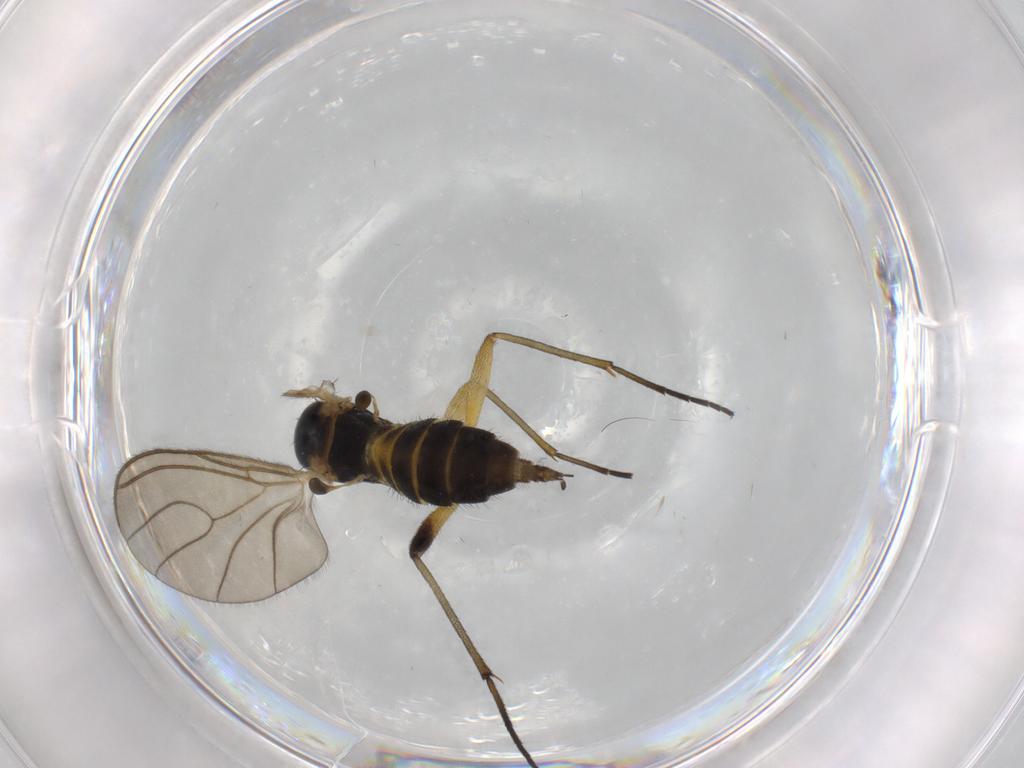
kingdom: Animalia
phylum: Arthropoda
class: Insecta
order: Diptera
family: Sciaridae
